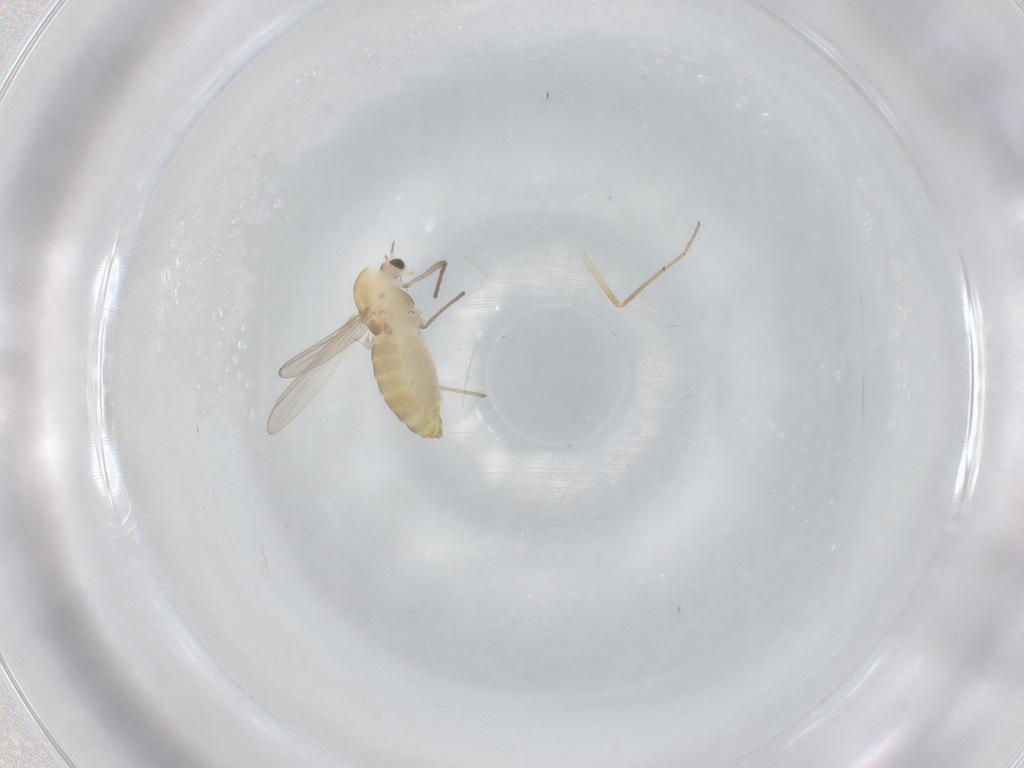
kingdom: Animalia
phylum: Arthropoda
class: Insecta
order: Diptera
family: Chironomidae
